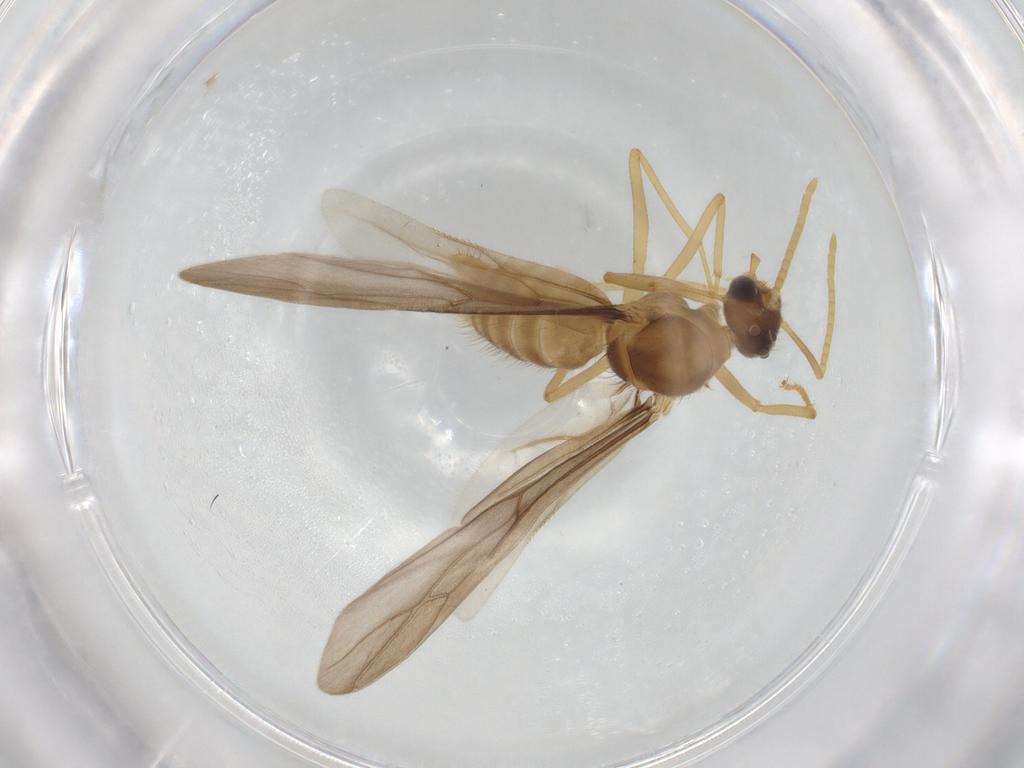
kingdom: Animalia
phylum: Arthropoda
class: Insecta
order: Hymenoptera
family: Formicidae
